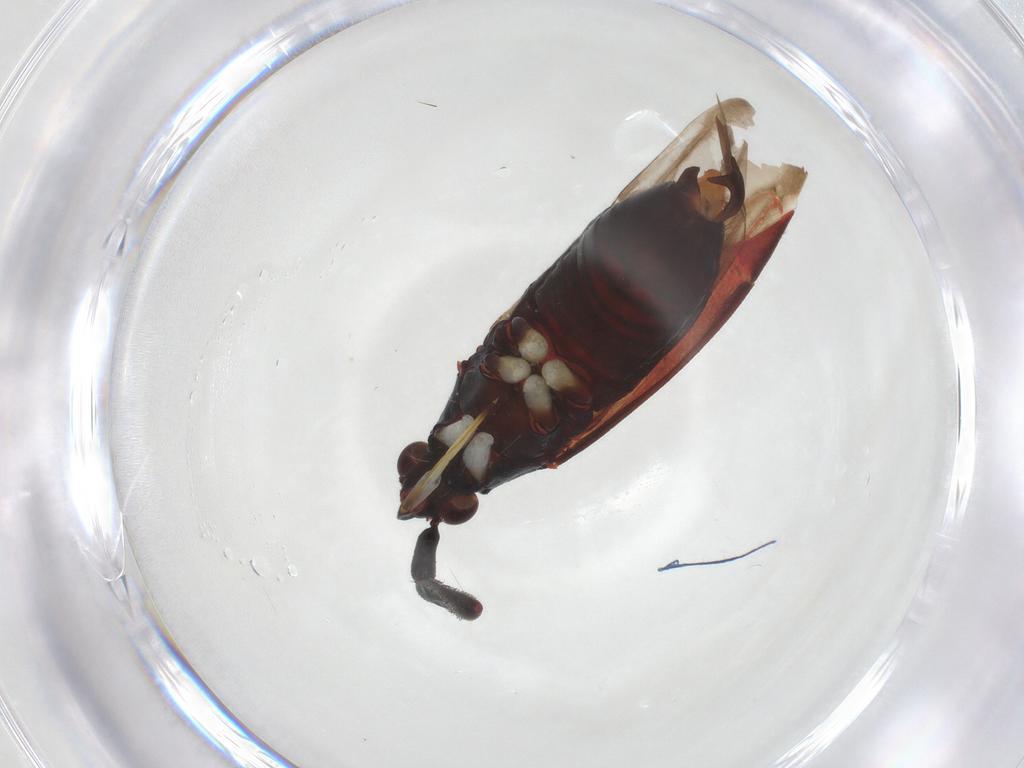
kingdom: Animalia
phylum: Arthropoda
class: Collembola
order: Entomobryomorpha
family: Entomobryidae
